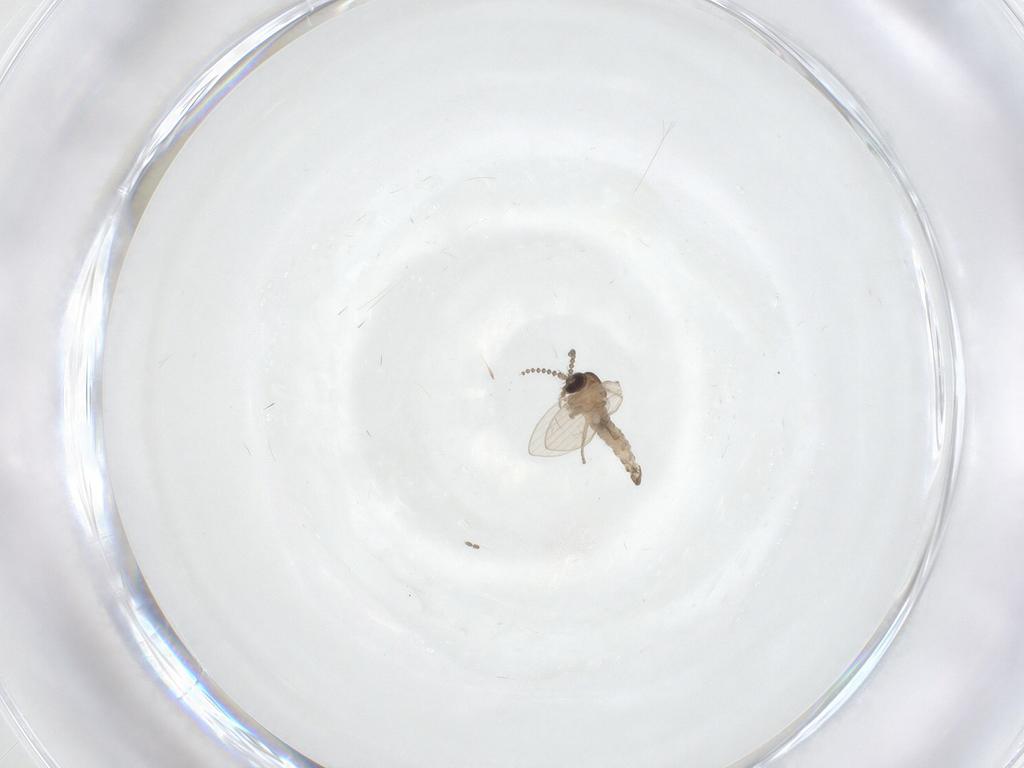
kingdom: Animalia
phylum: Arthropoda
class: Insecta
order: Diptera
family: Psychodidae
